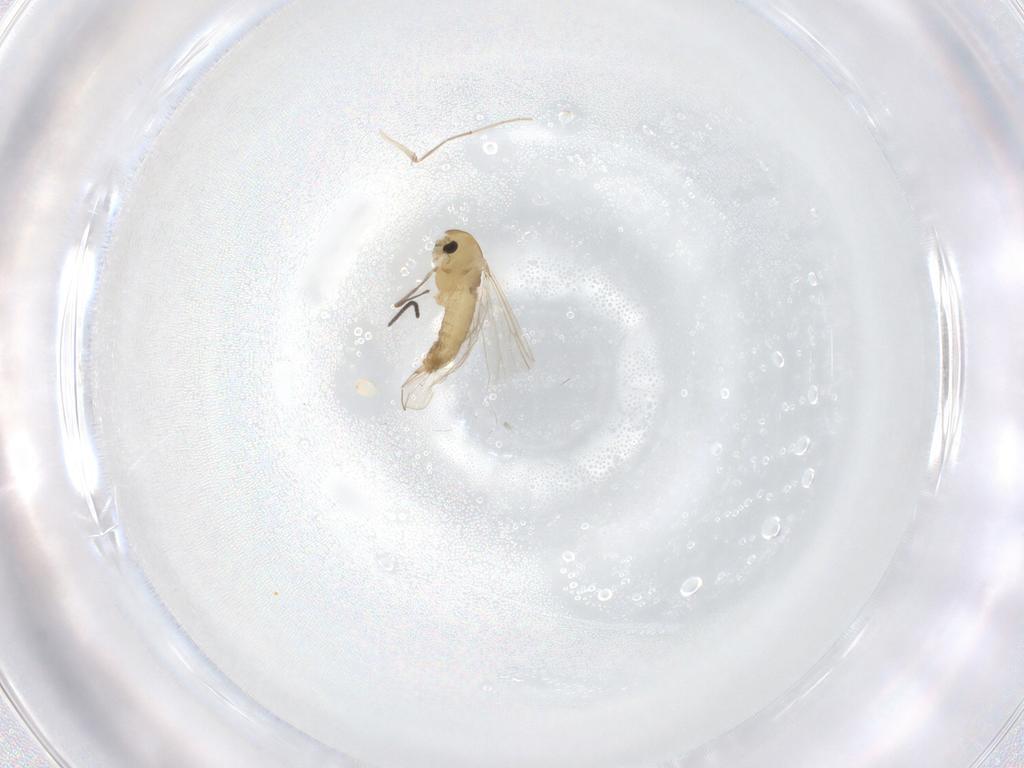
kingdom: Animalia
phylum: Arthropoda
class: Insecta
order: Diptera
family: Chironomidae
